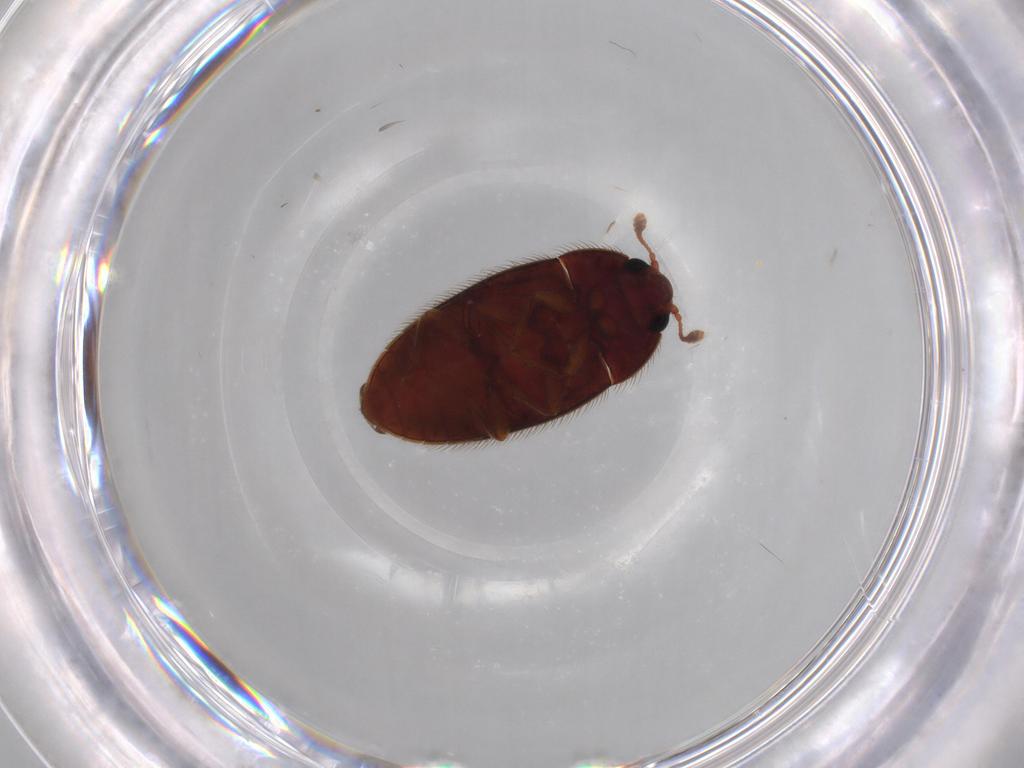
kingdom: Animalia
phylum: Arthropoda
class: Insecta
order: Coleoptera
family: Biphyllidae
